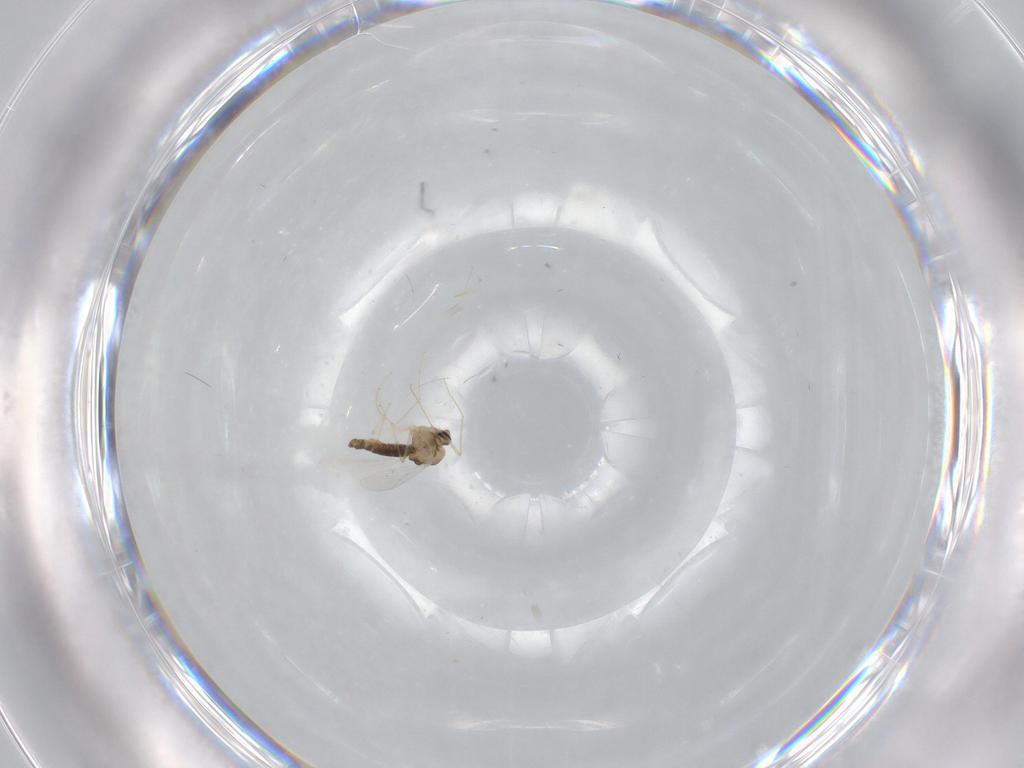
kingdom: Animalia
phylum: Arthropoda
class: Insecta
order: Diptera
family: Chironomidae
